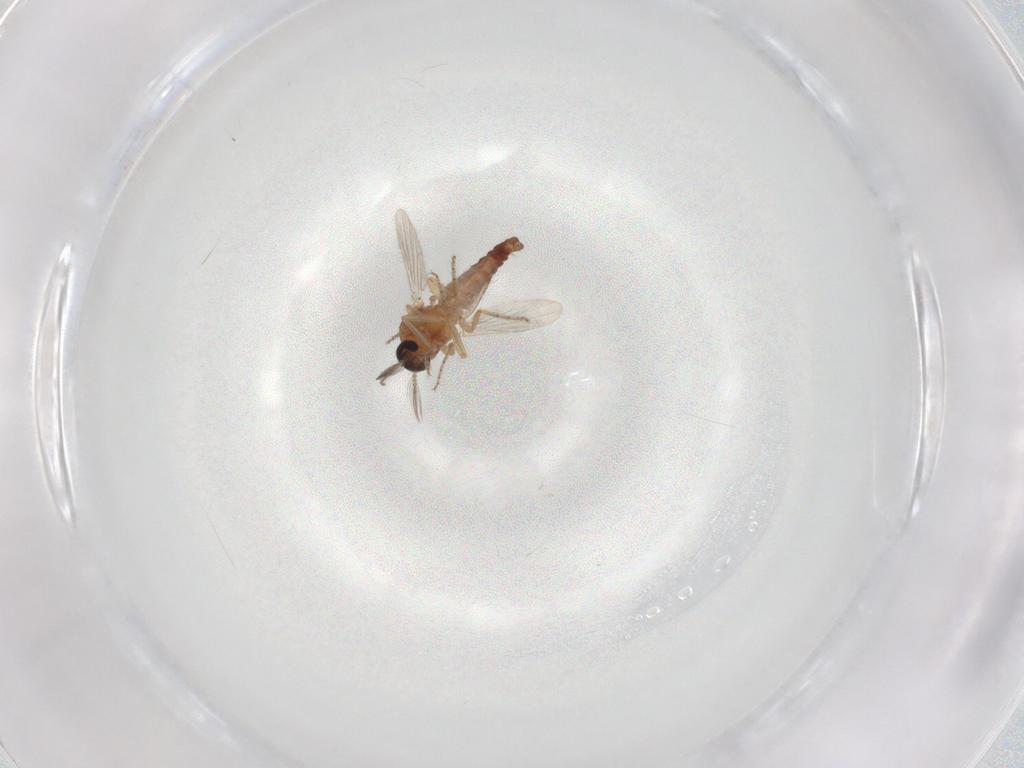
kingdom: Animalia
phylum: Arthropoda
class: Insecta
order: Diptera
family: Ceratopogonidae
